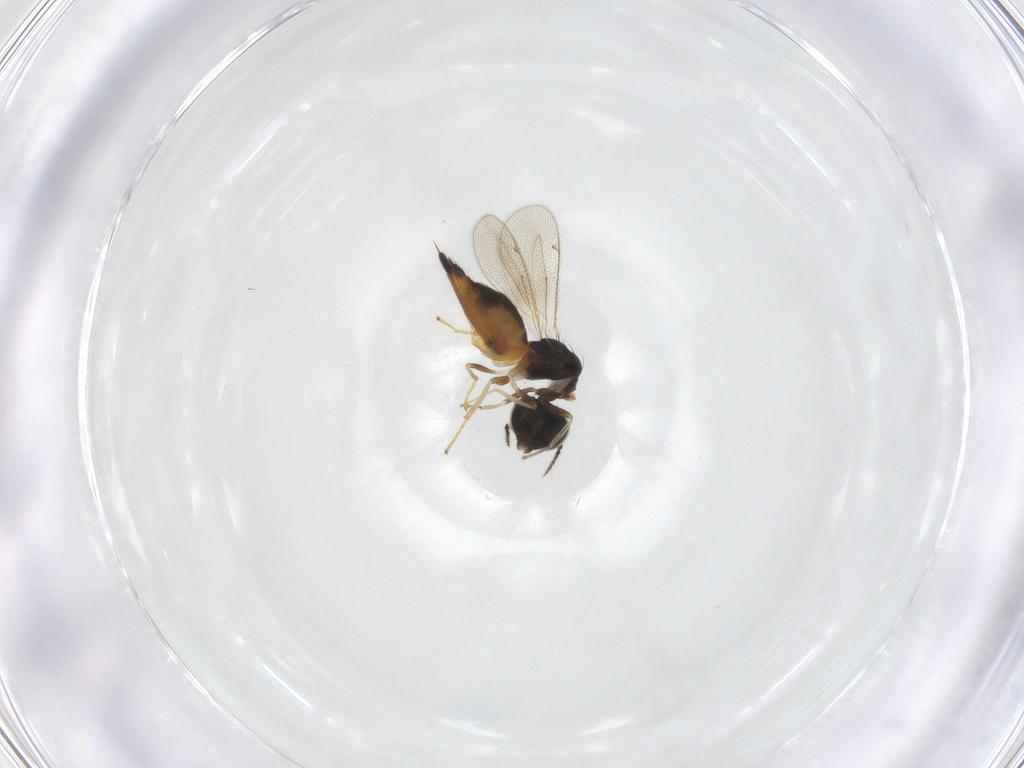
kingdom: Animalia
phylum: Arthropoda
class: Insecta
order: Hymenoptera
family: Eulophidae
